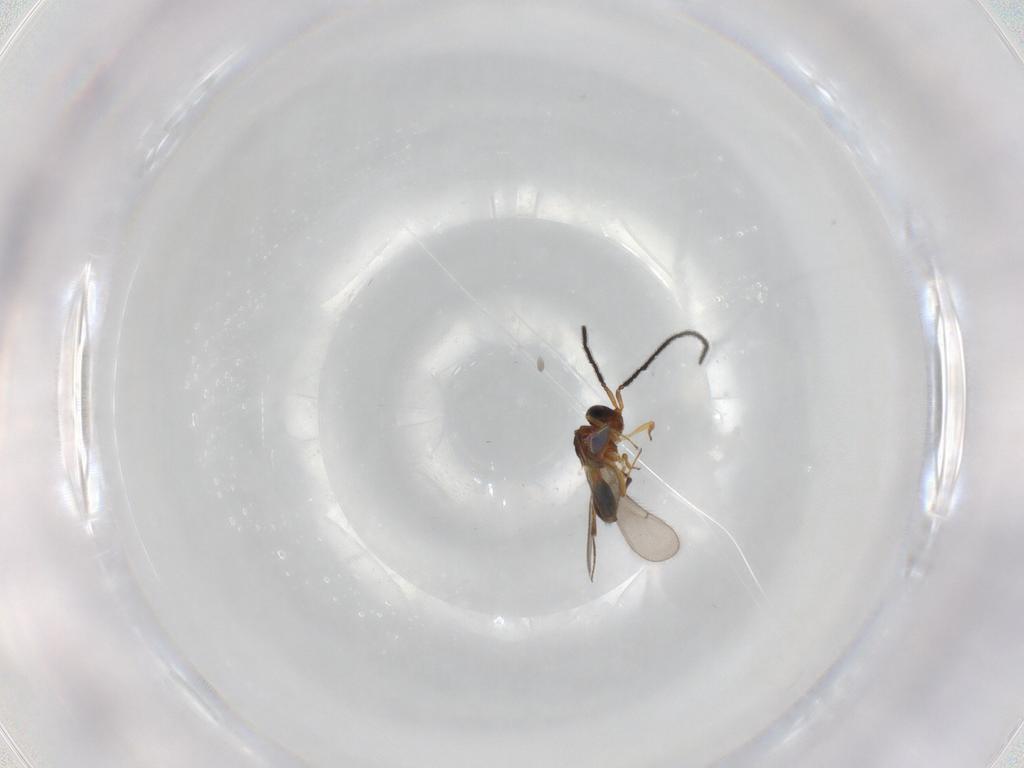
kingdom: Animalia
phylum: Arthropoda
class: Insecta
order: Hymenoptera
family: Scelionidae
